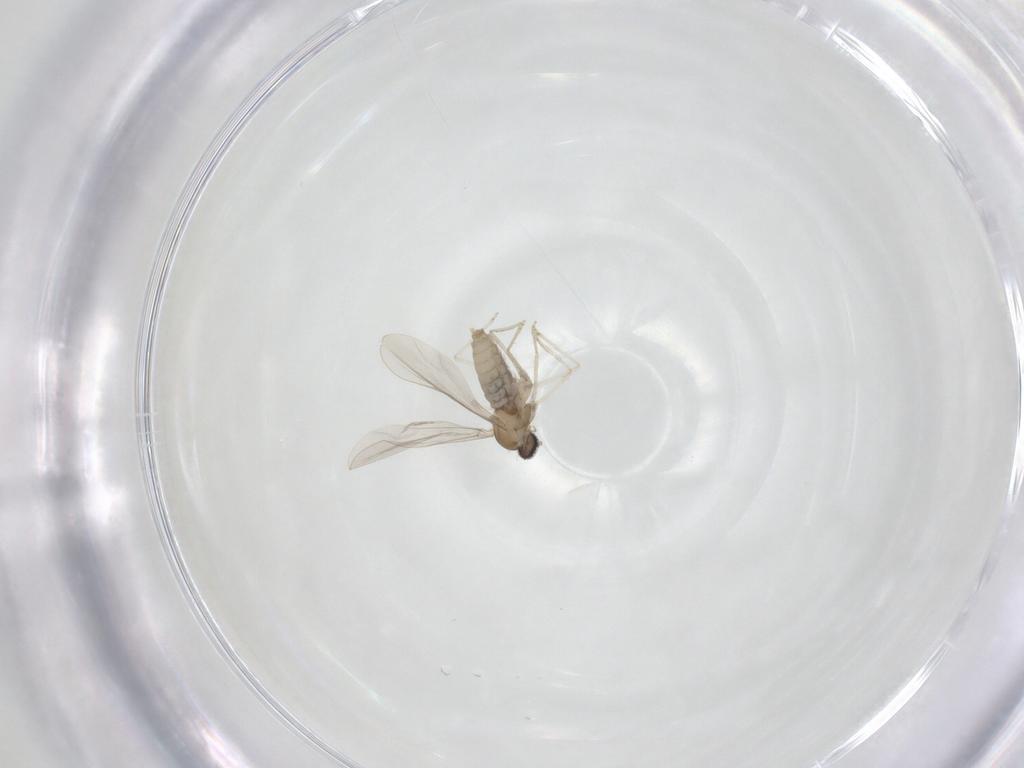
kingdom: Animalia
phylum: Arthropoda
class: Insecta
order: Diptera
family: Cecidomyiidae
